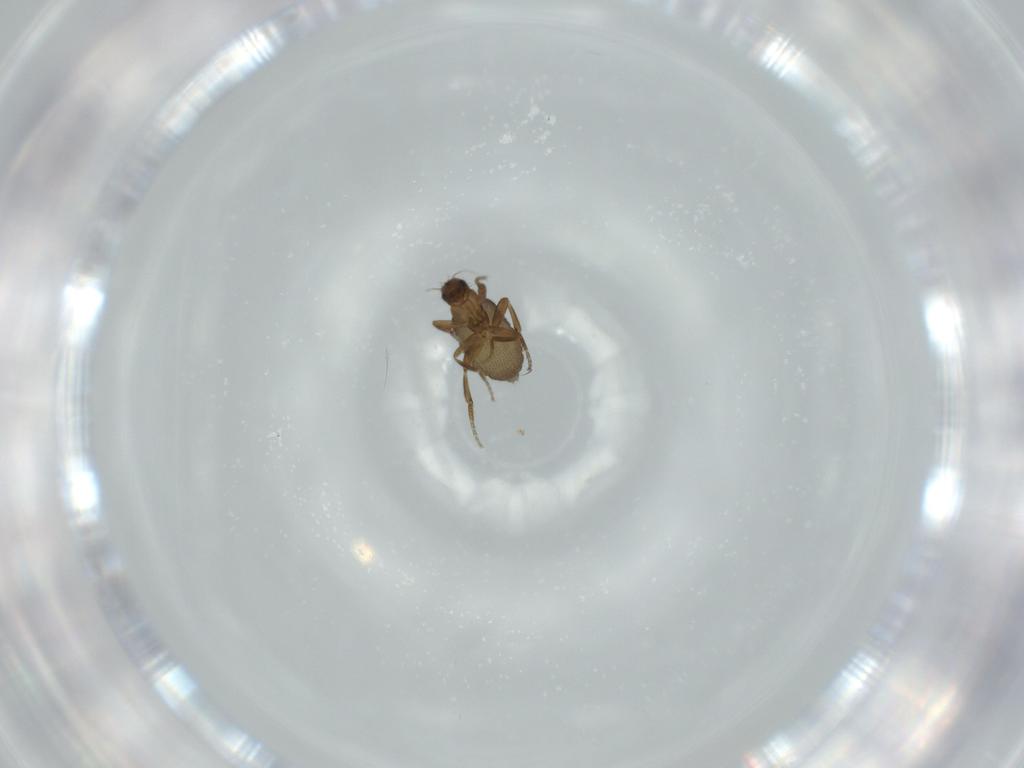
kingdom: Animalia
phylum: Arthropoda
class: Insecta
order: Diptera
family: Phoridae
